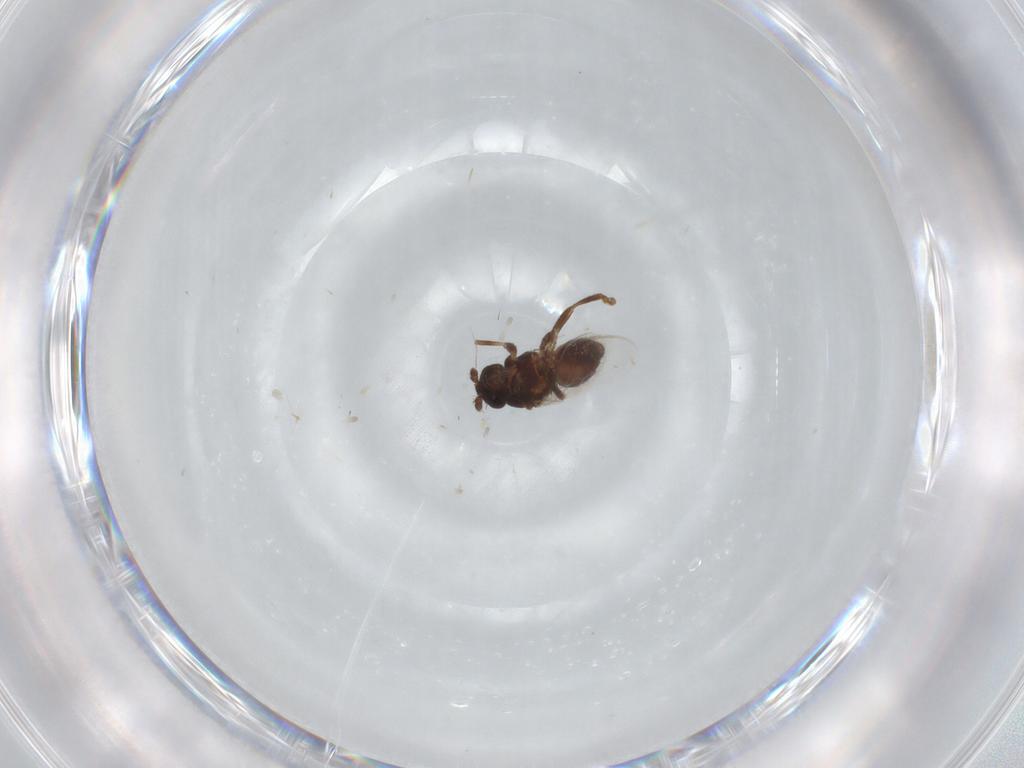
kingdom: Animalia
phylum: Arthropoda
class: Insecta
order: Diptera
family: Sphaeroceridae
